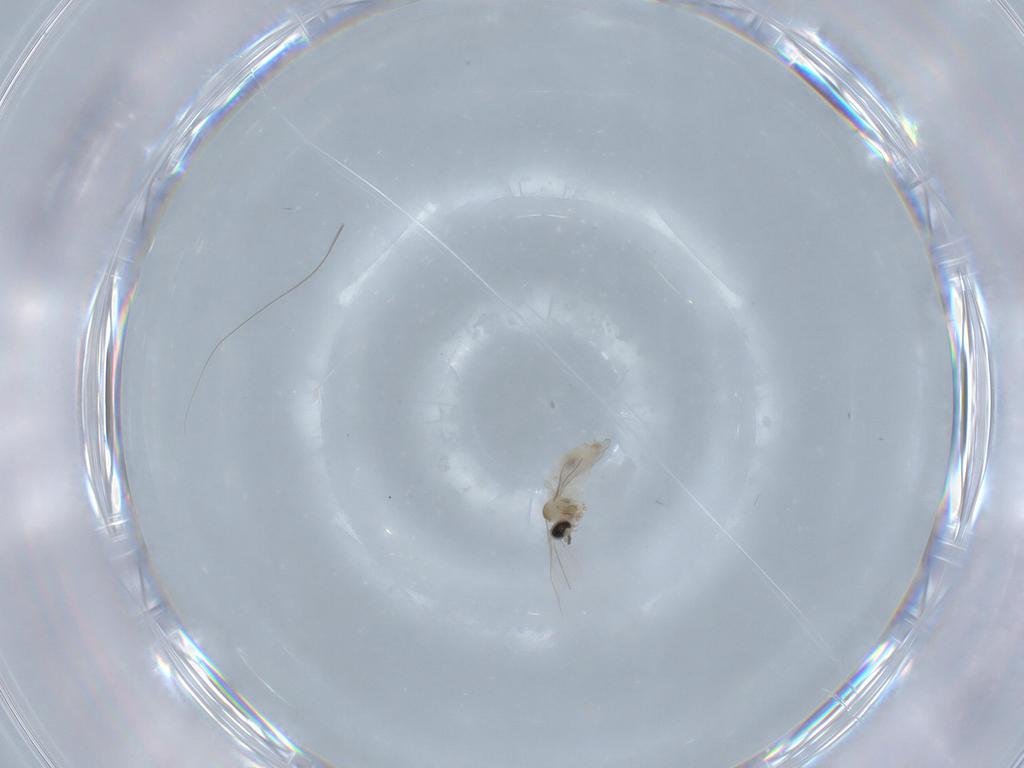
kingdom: Animalia
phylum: Arthropoda
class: Insecta
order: Diptera
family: Cecidomyiidae
